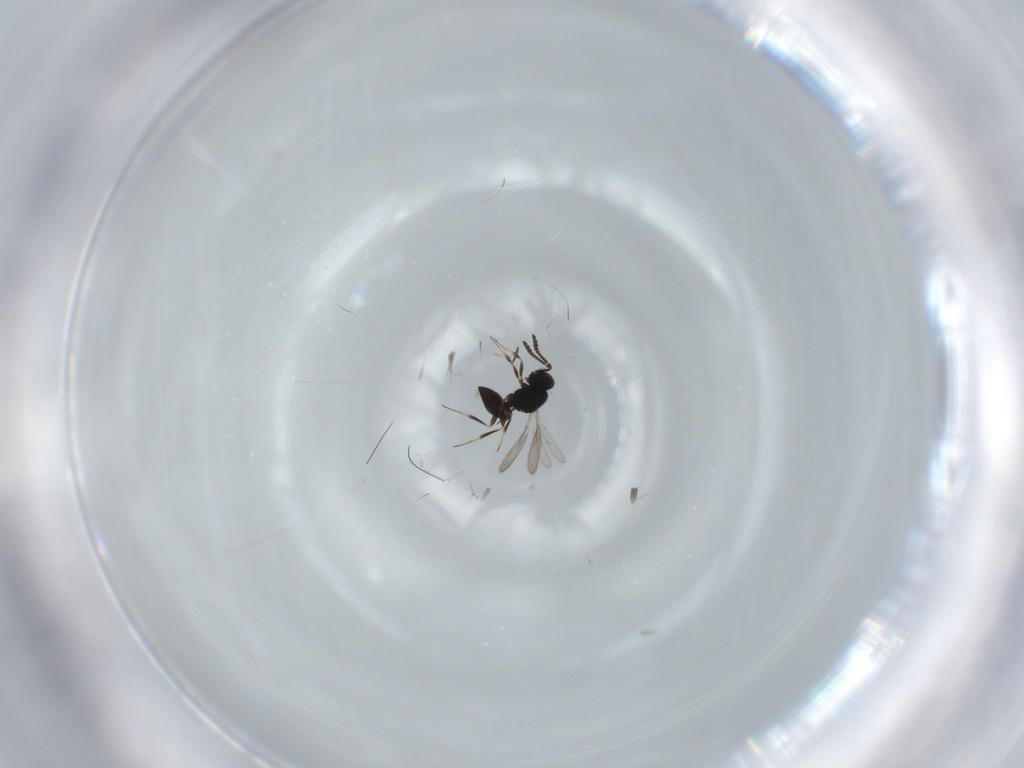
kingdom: Animalia
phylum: Arthropoda
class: Insecta
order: Hymenoptera
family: Scelionidae
